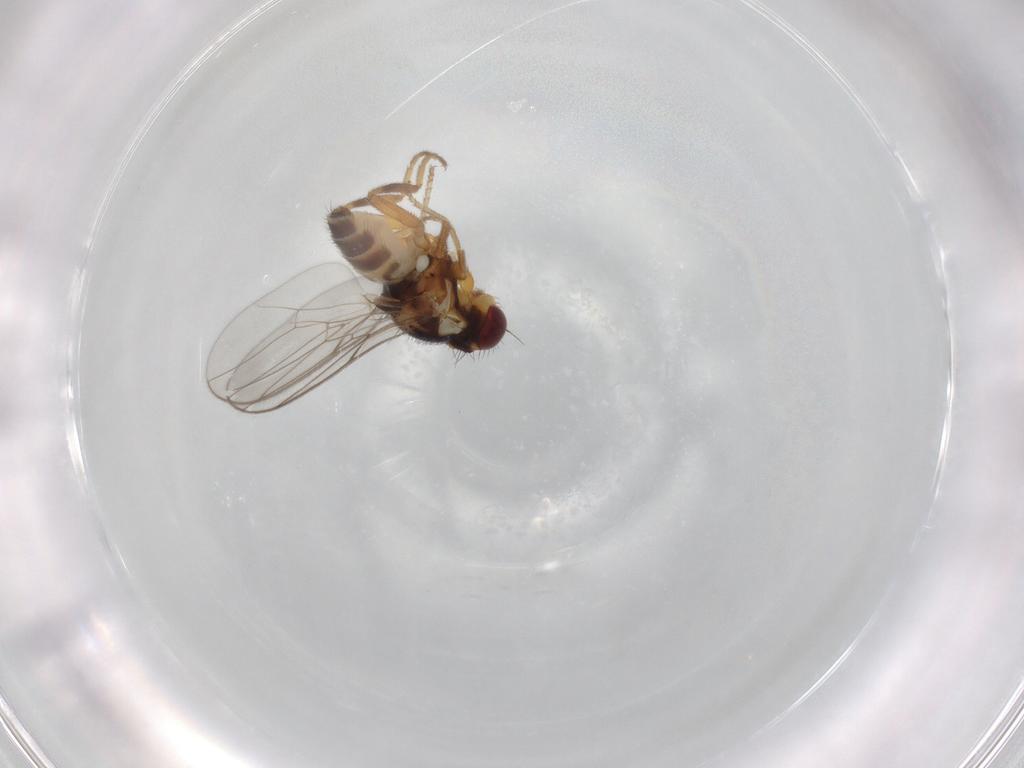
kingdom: Animalia
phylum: Arthropoda
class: Insecta
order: Diptera
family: Chloropidae
